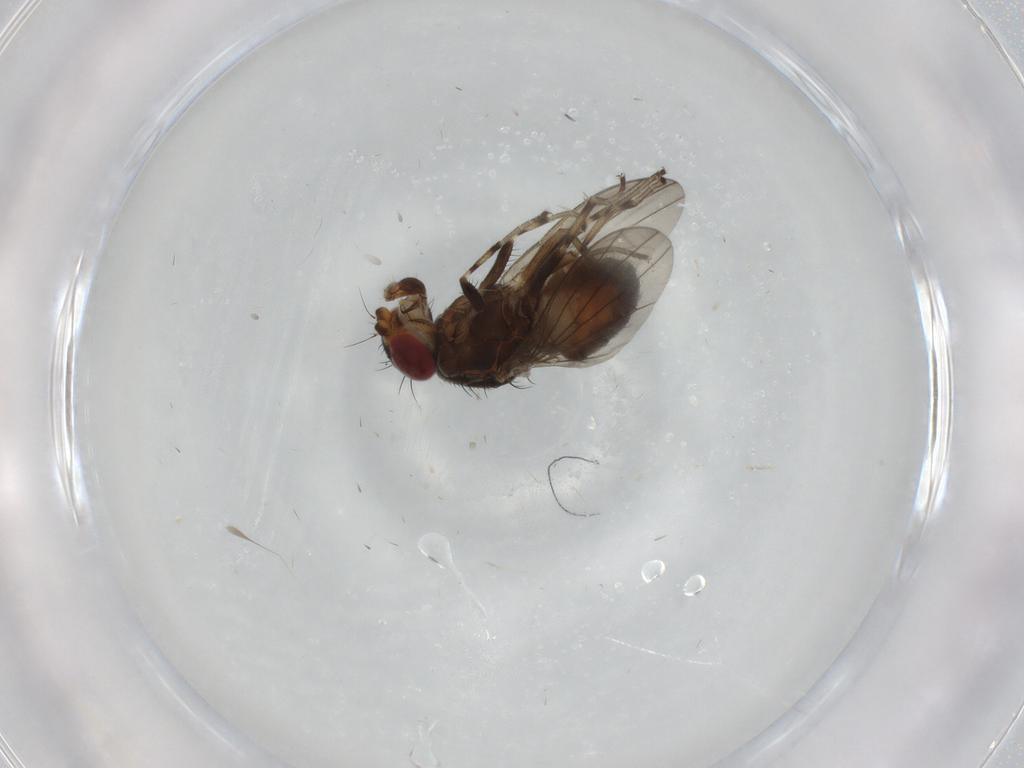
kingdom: Animalia
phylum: Arthropoda
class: Insecta
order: Diptera
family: Heleomyzidae
